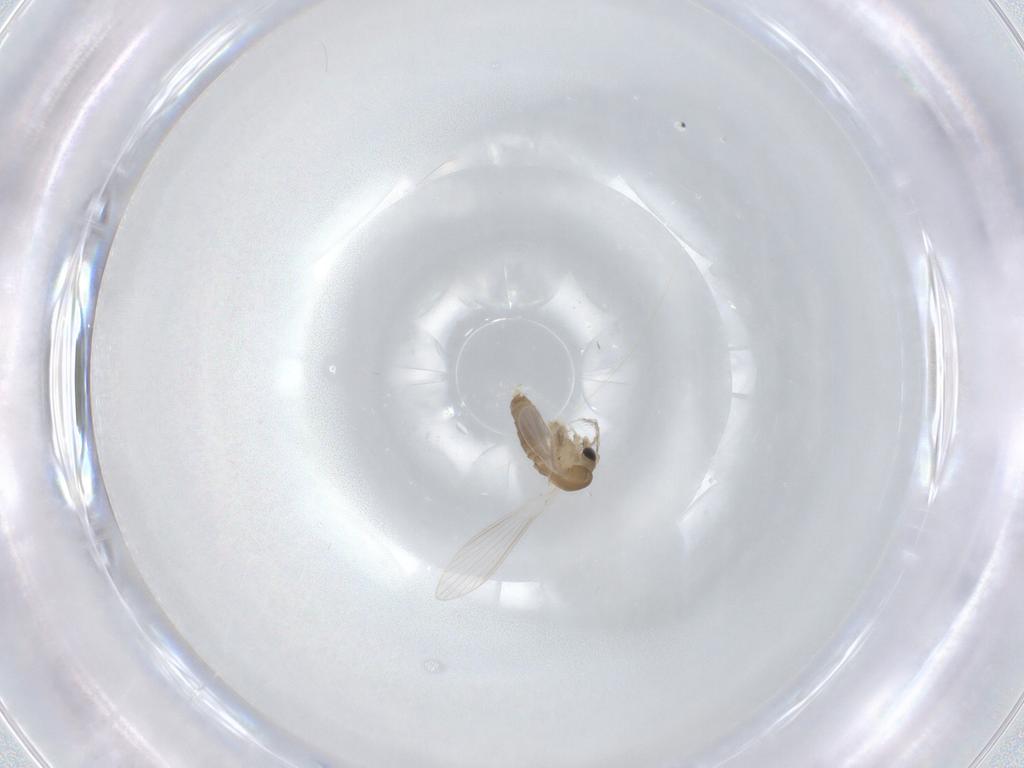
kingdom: Animalia
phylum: Arthropoda
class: Insecta
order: Diptera
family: Psychodidae
